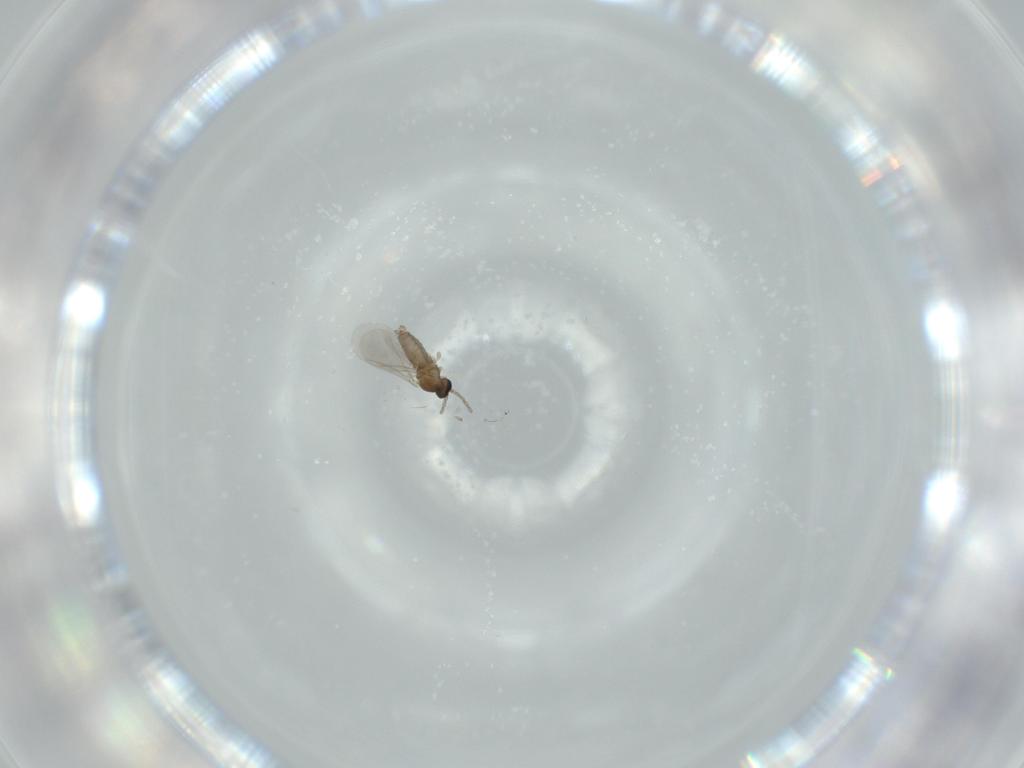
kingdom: Animalia
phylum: Arthropoda
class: Insecta
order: Diptera
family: Cecidomyiidae
